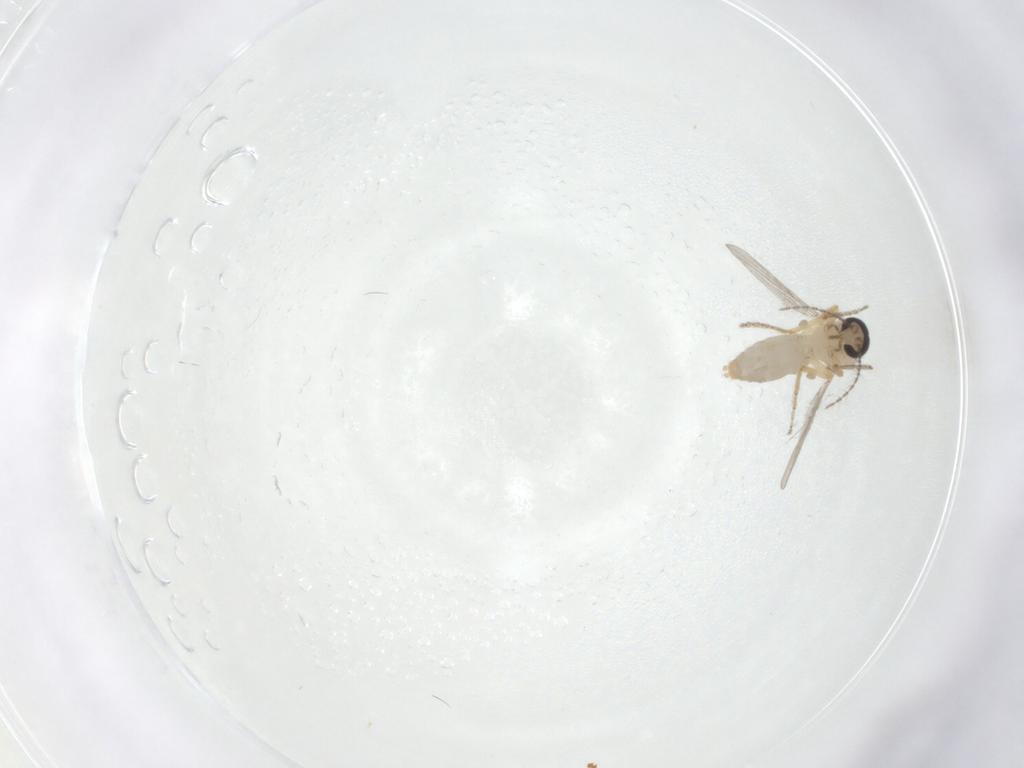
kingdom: Animalia
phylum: Arthropoda
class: Insecta
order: Diptera
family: Ceratopogonidae
